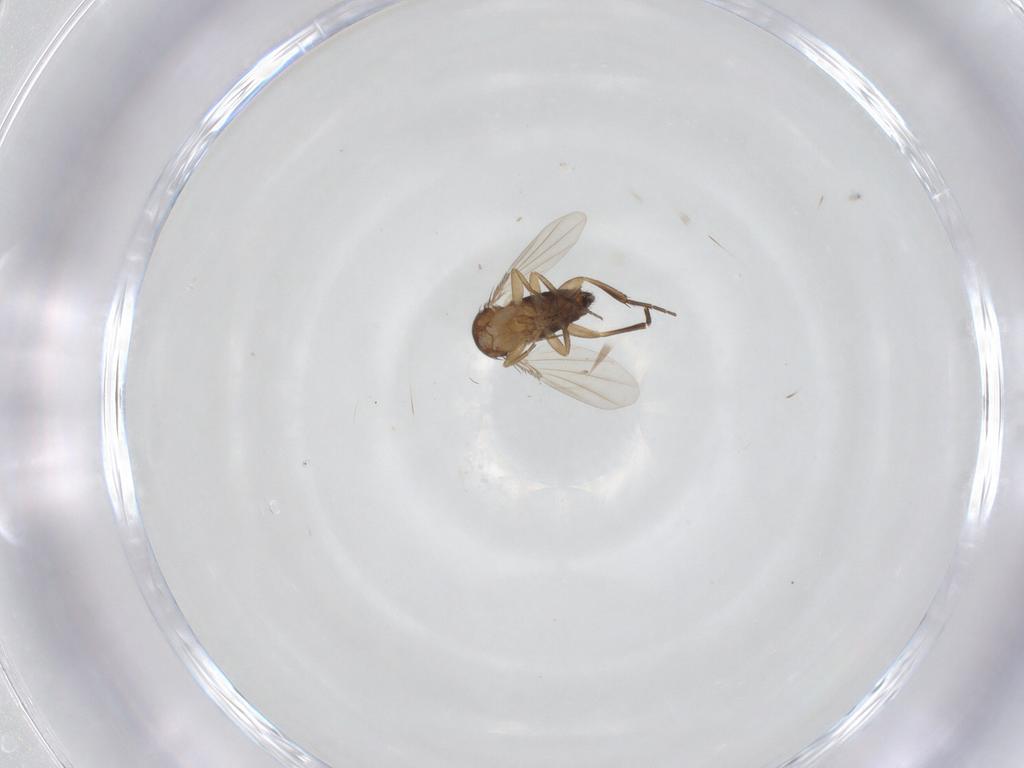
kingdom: Animalia
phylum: Arthropoda
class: Insecta
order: Diptera
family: Phoridae
